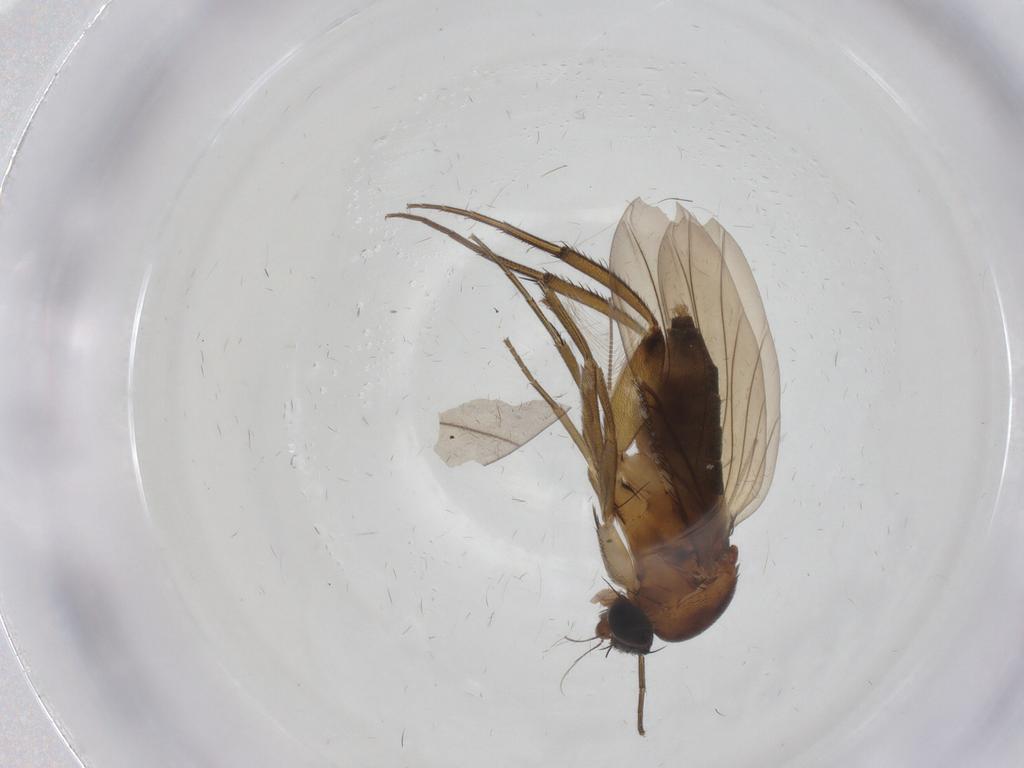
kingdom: Animalia
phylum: Arthropoda
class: Insecta
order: Diptera
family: Phoridae
